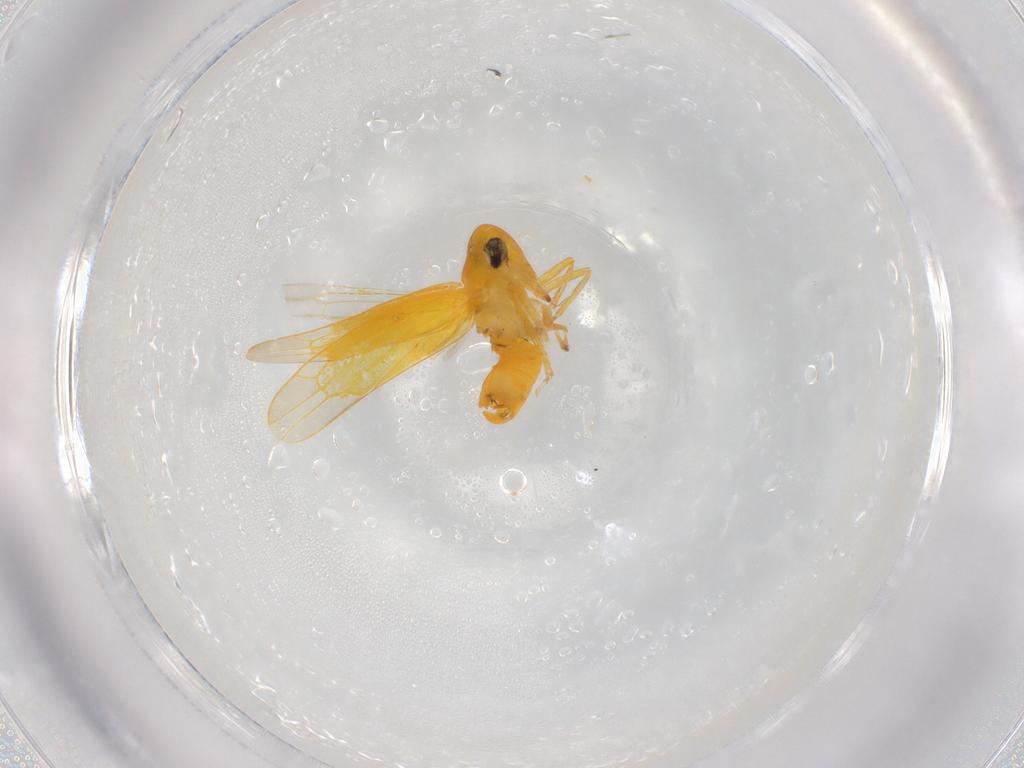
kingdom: Animalia
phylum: Arthropoda
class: Insecta
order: Hemiptera
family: Cicadellidae
